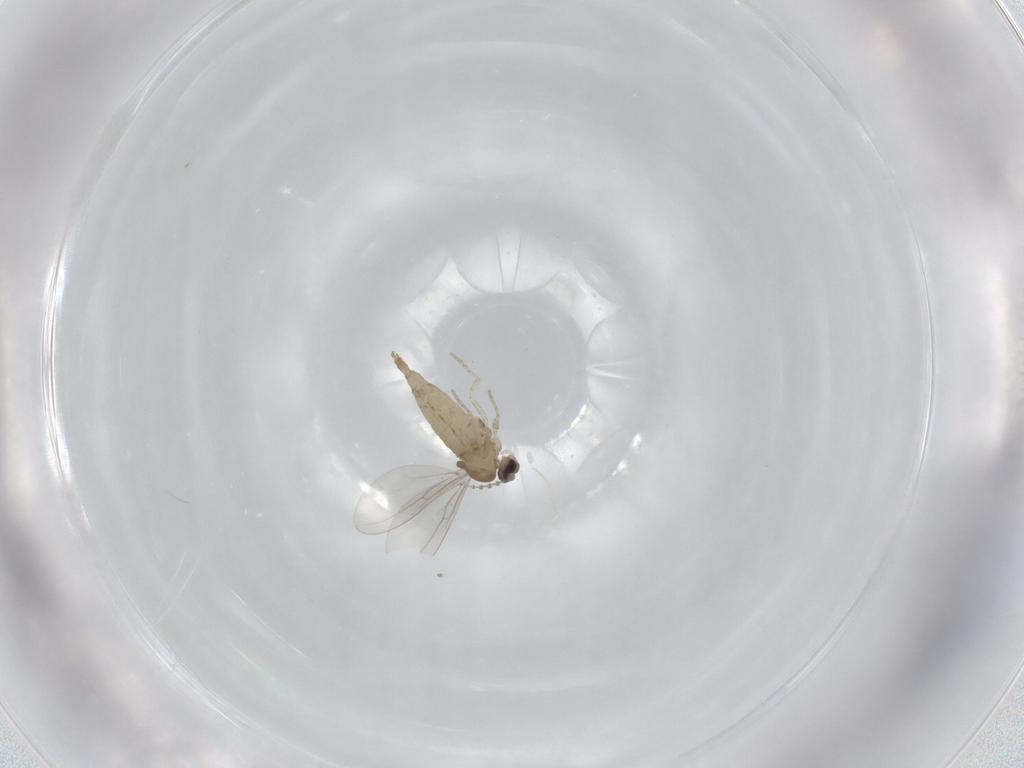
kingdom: Animalia
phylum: Arthropoda
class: Insecta
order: Diptera
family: Cecidomyiidae
